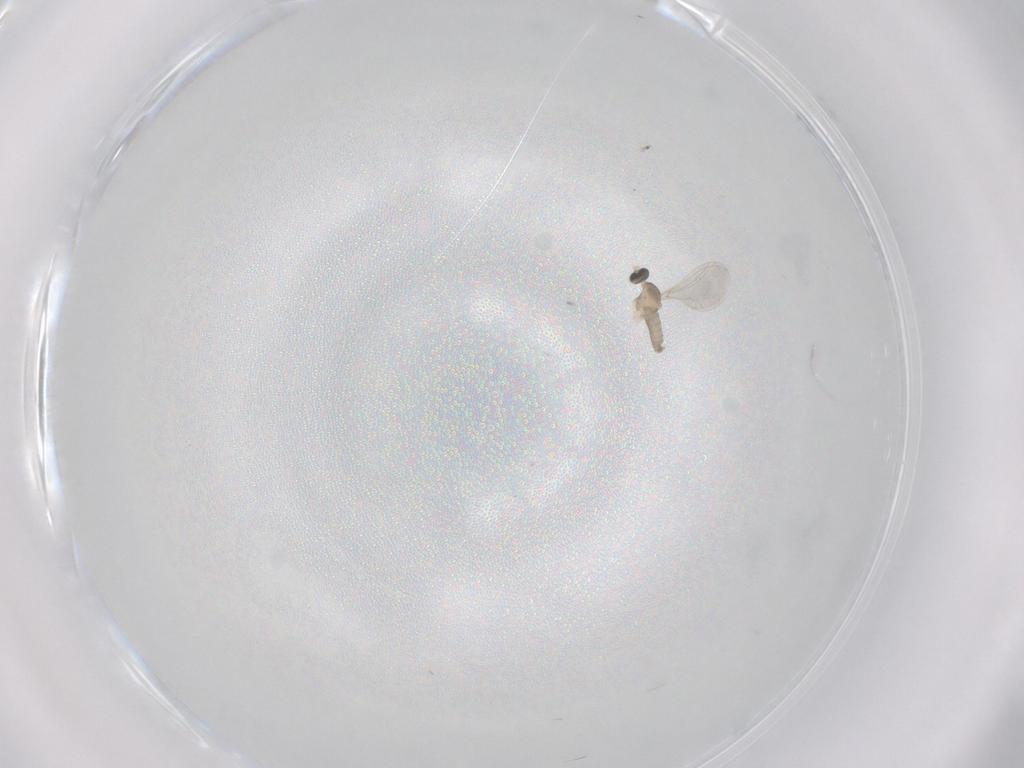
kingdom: Animalia
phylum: Arthropoda
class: Insecta
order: Diptera
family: Cecidomyiidae
